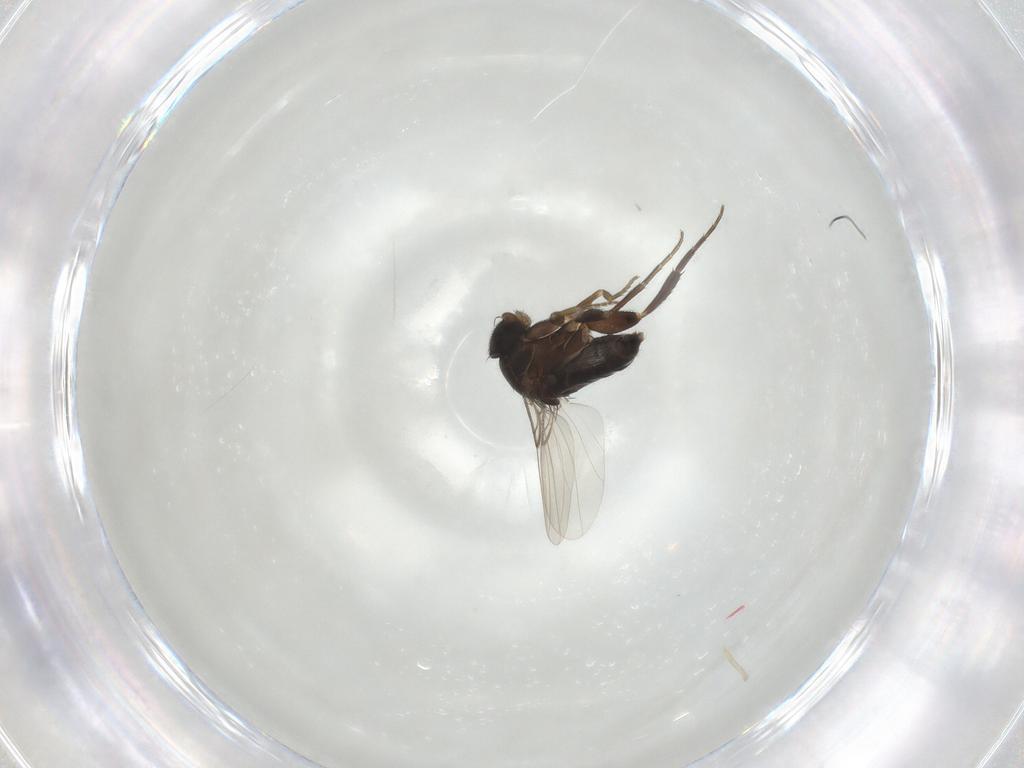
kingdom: Animalia
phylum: Arthropoda
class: Insecta
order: Diptera
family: Phoridae
